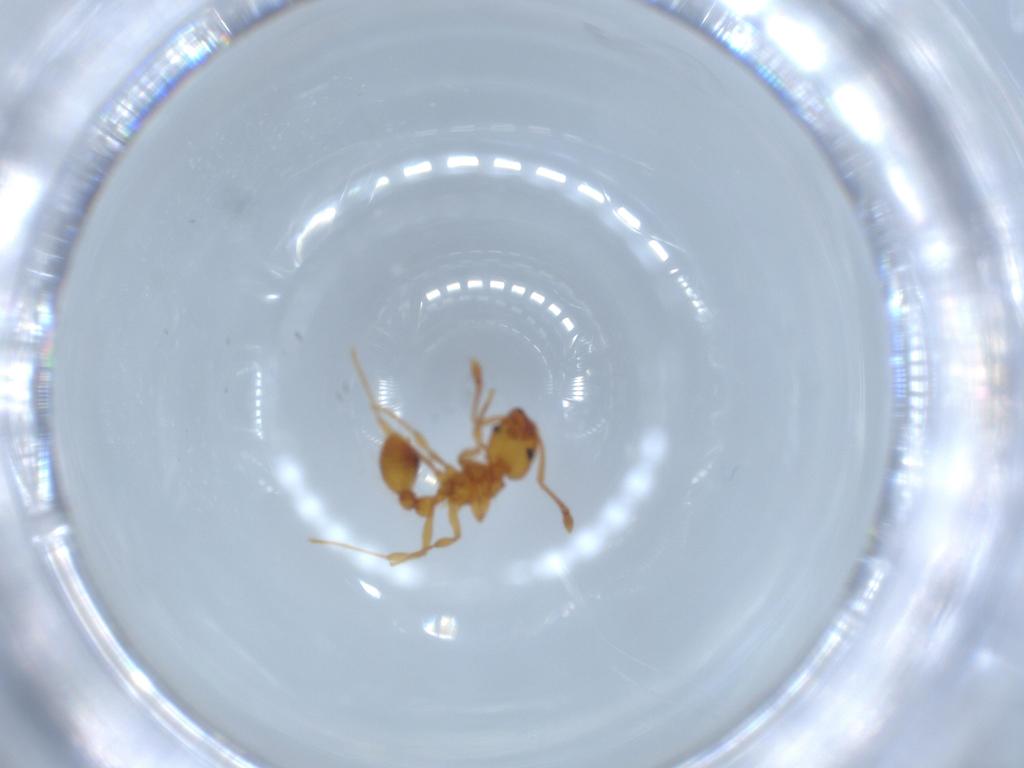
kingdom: Animalia
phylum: Arthropoda
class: Insecta
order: Hymenoptera
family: Formicidae
